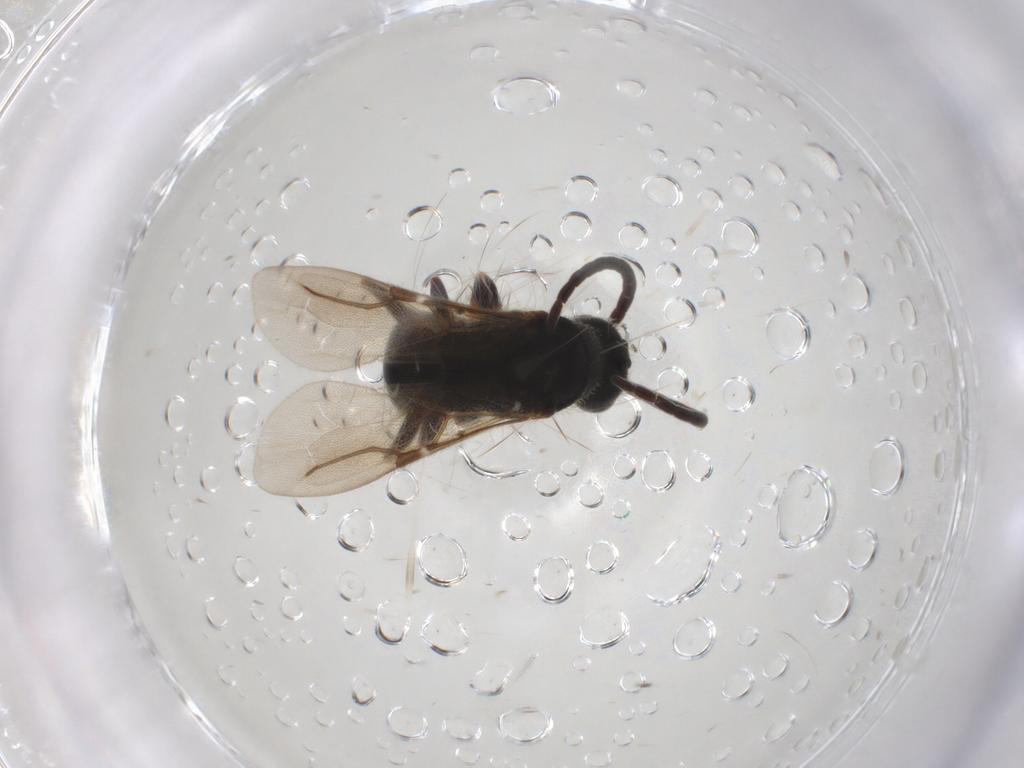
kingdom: Animalia
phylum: Arthropoda
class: Insecta
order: Hymenoptera
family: Bethylidae
